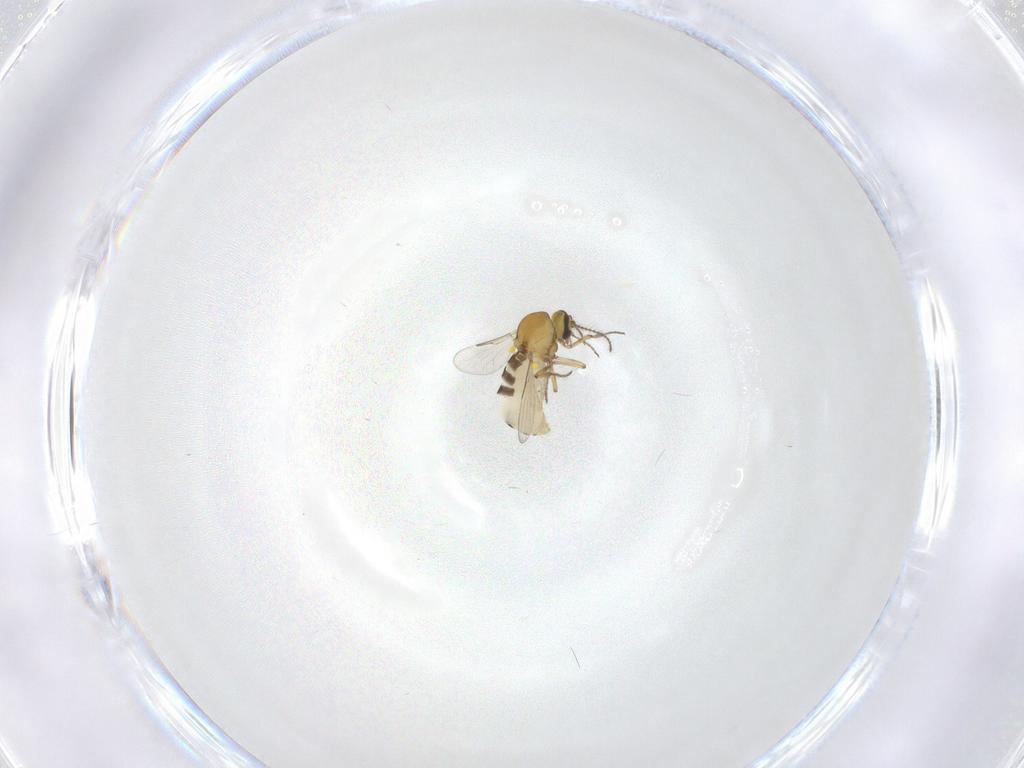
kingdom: Animalia
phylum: Arthropoda
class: Insecta
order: Diptera
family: Ceratopogonidae
